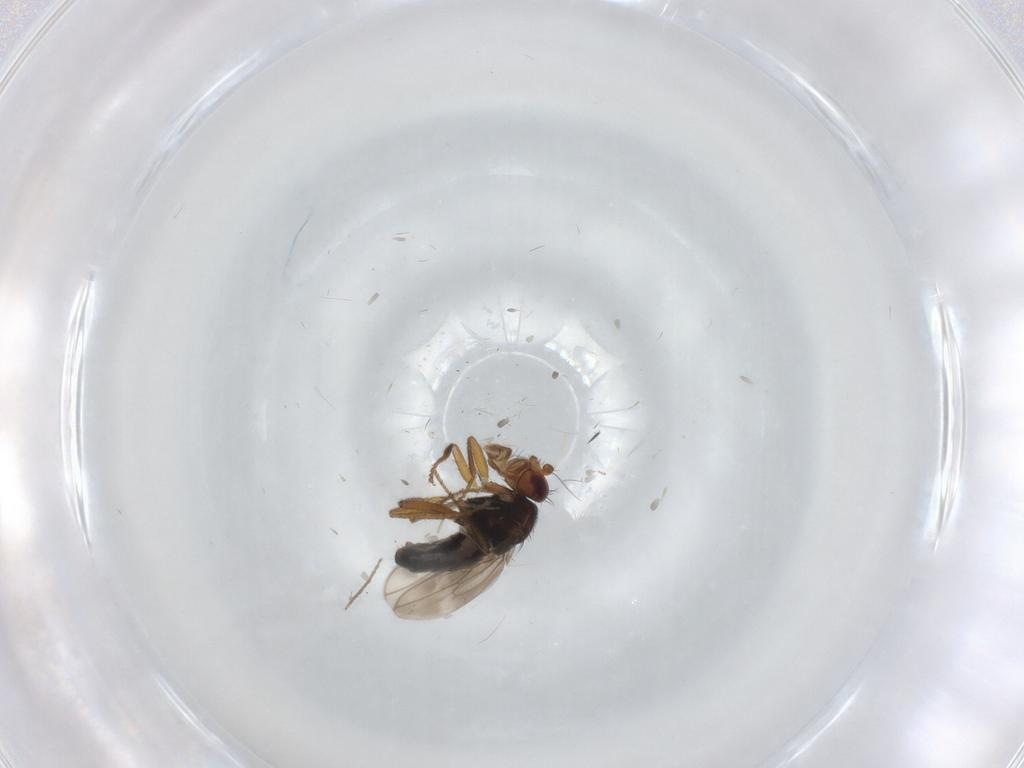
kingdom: Animalia
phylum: Arthropoda
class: Insecta
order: Diptera
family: Sphaeroceridae
